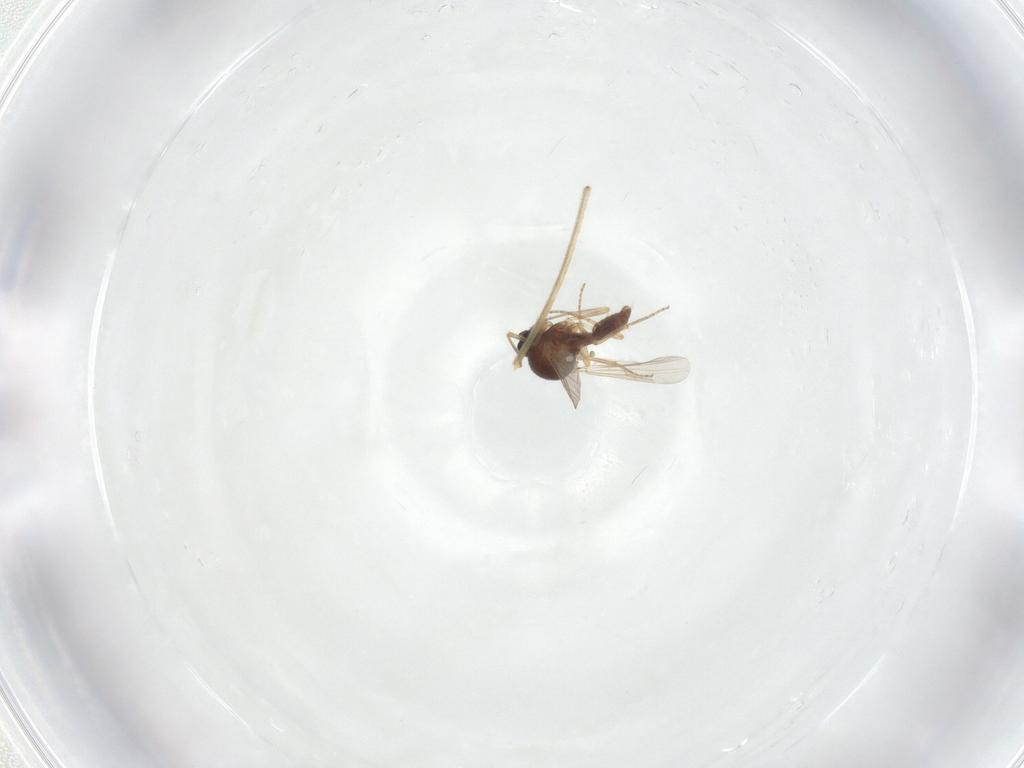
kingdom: Animalia
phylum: Arthropoda
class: Insecta
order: Diptera
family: Ceratopogonidae
